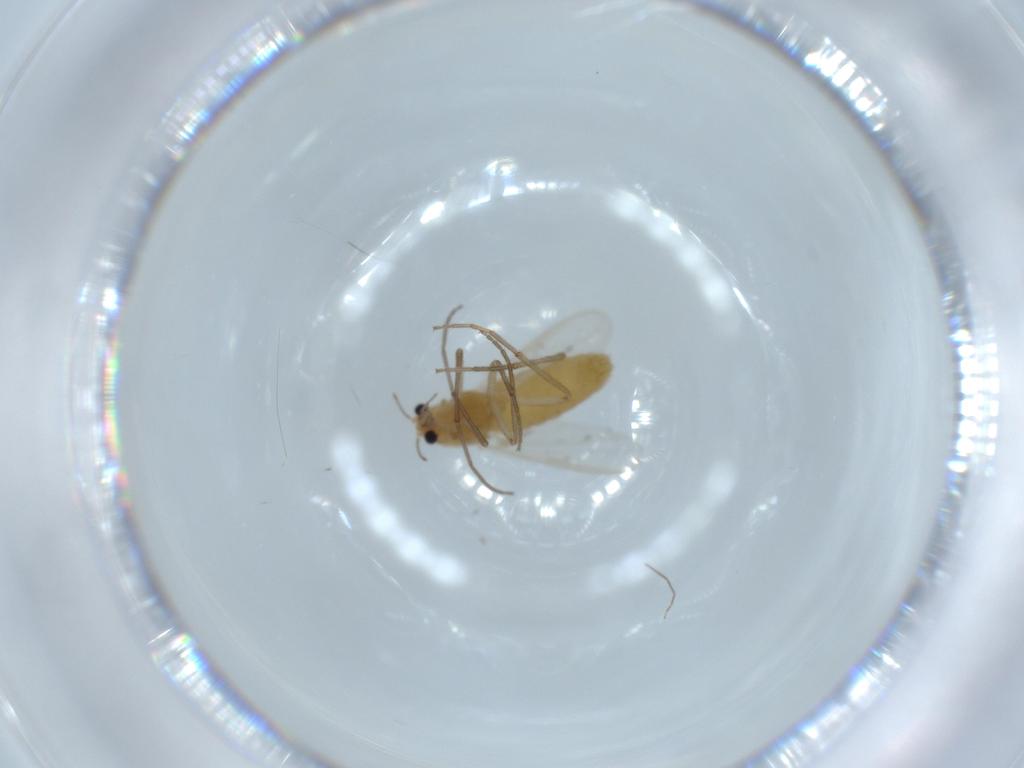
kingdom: Animalia
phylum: Arthropoda
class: Insecta
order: Diptera
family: Chironomidae
